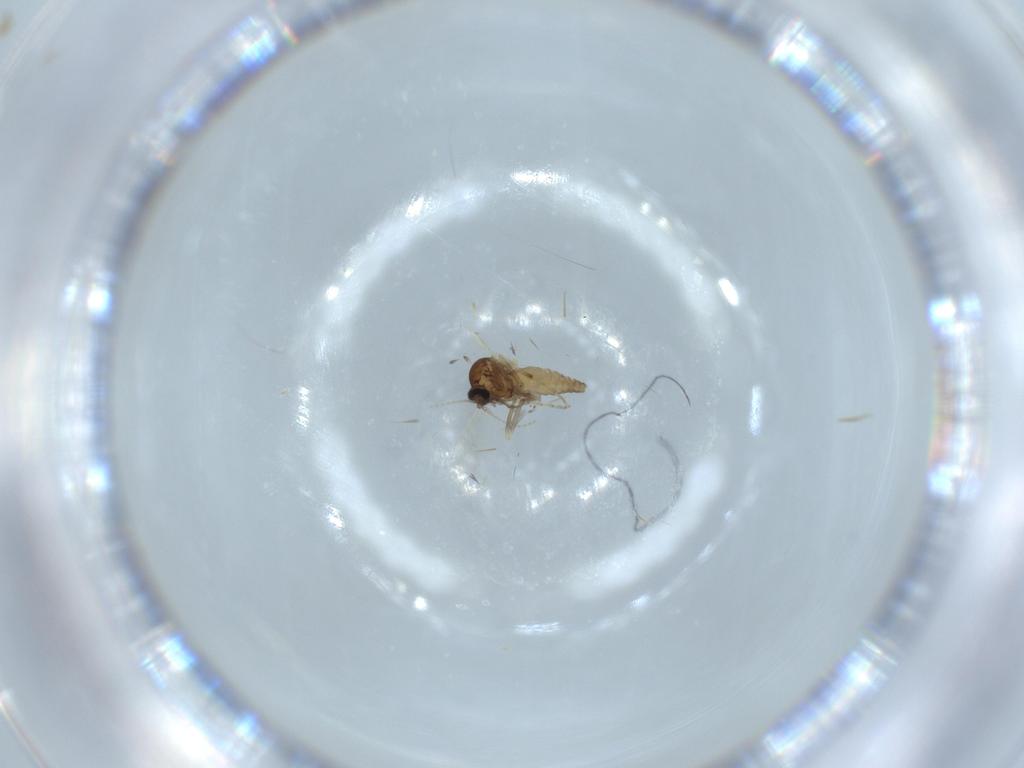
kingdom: Animalia
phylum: Arthropoda
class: Insecta
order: Diptera
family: Ceratopogonidae
